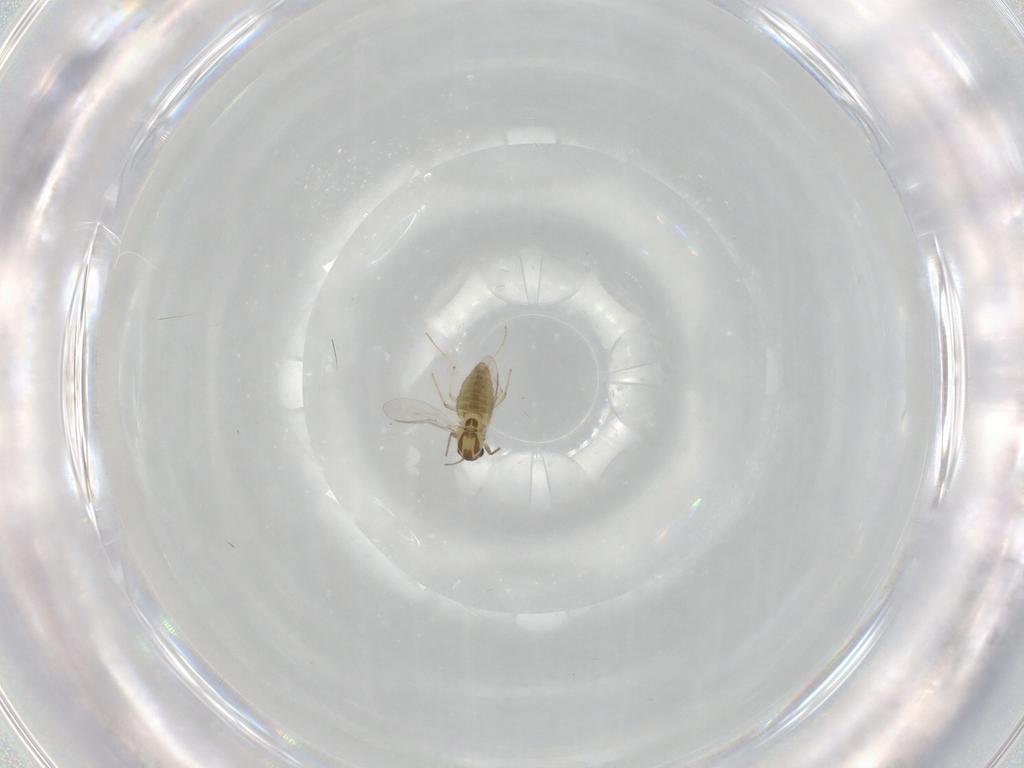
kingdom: Animalia
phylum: Arthropoda
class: Insecta
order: Diptera
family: Chironomidae
